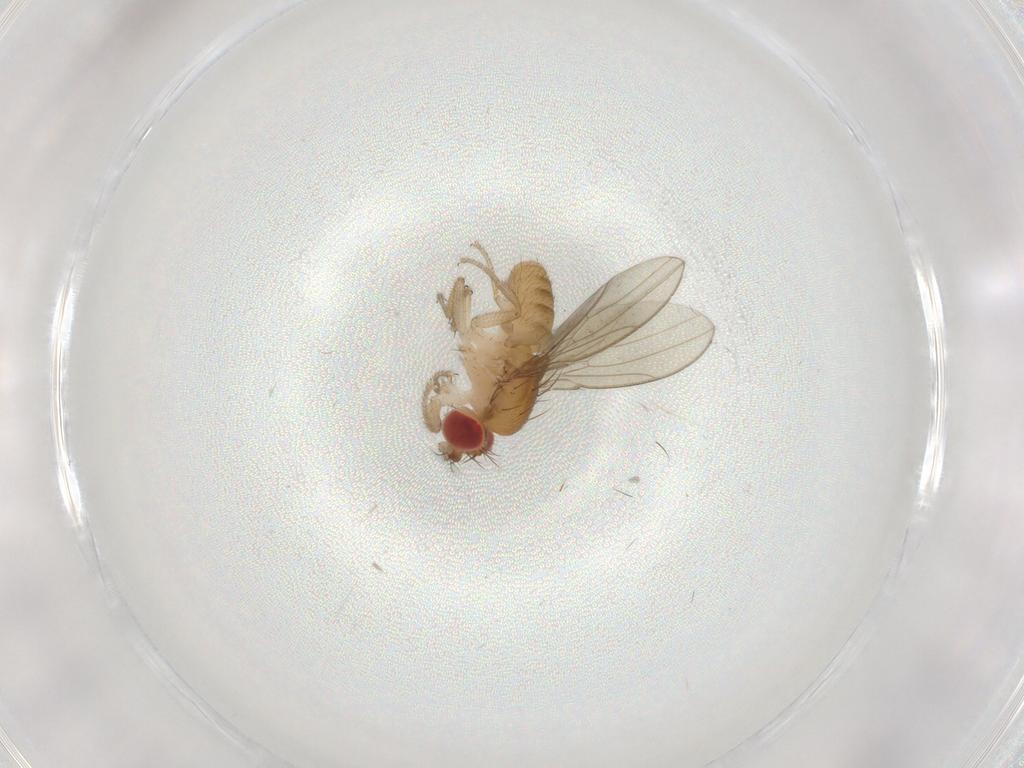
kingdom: Animalia
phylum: Arthropoda
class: Insecta
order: Diptera
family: Drosophilidae
